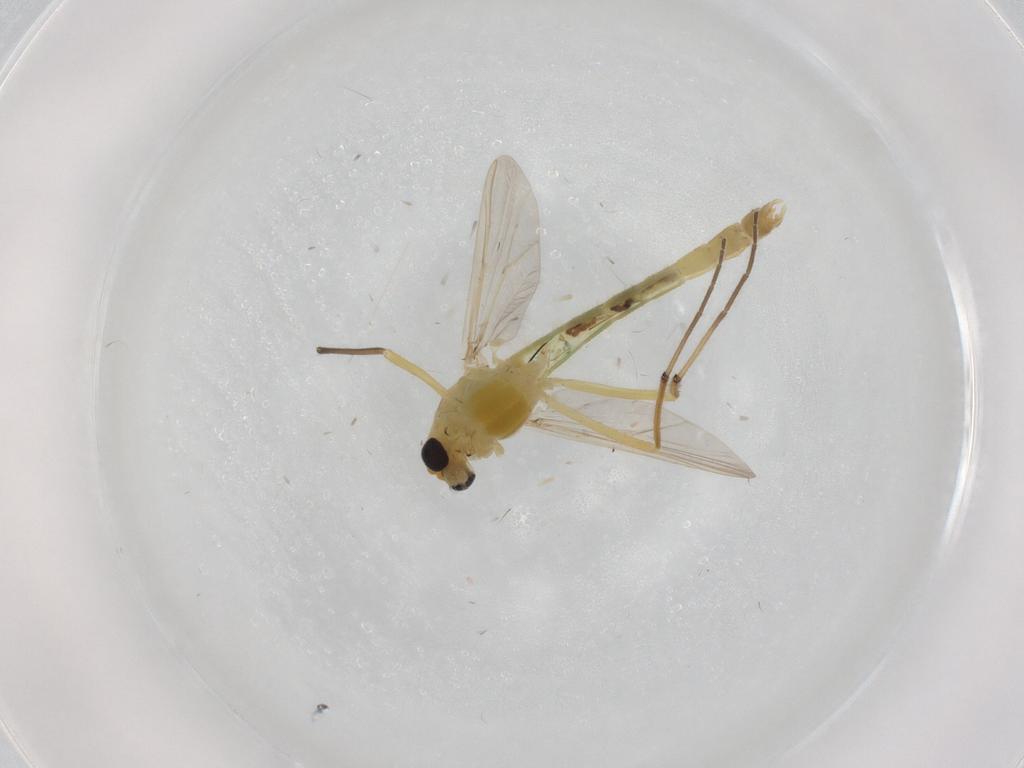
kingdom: Animalia
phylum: Arthropoda
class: Insecta
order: Diptera
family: Chironomidae
